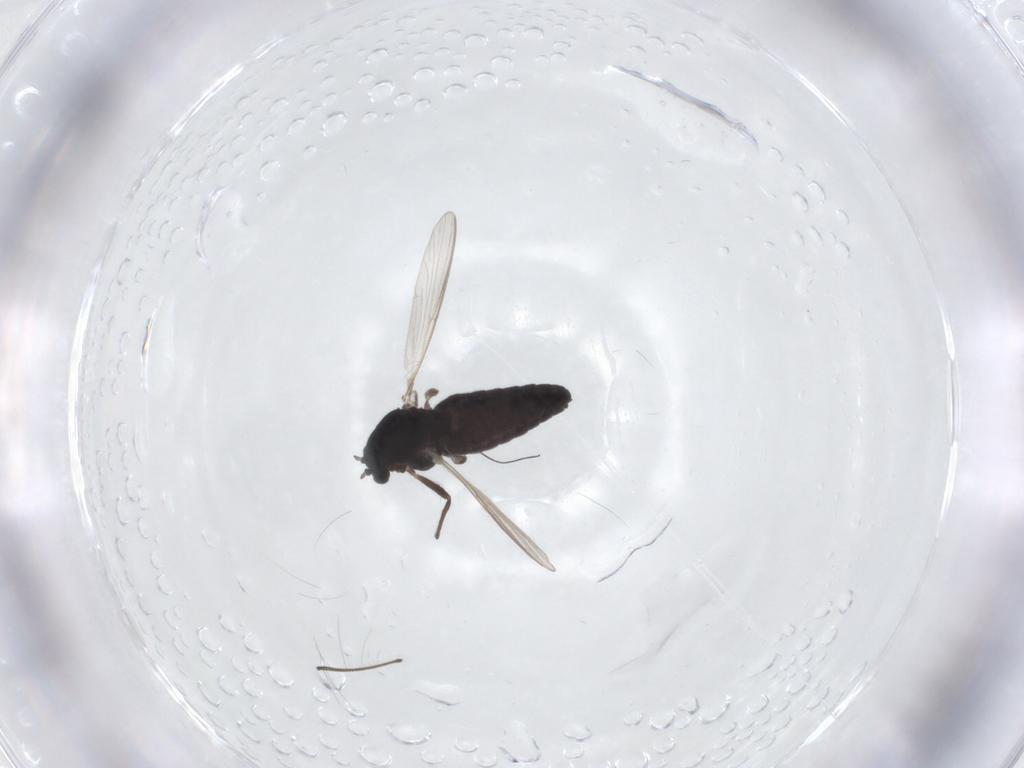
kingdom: Animalia
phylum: Arthropoda
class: Insecta
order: Diptera
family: Chironomidae
